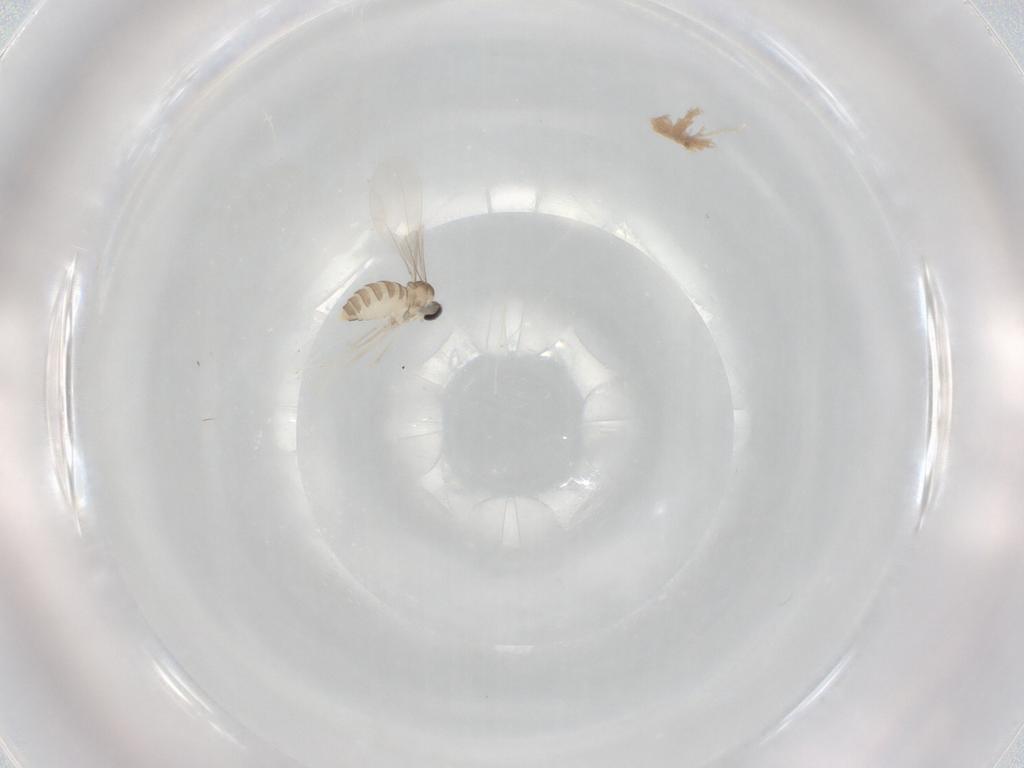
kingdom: Animalia
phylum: Arthropoda
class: Insecta
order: Diptera
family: Cecidomyiidae
